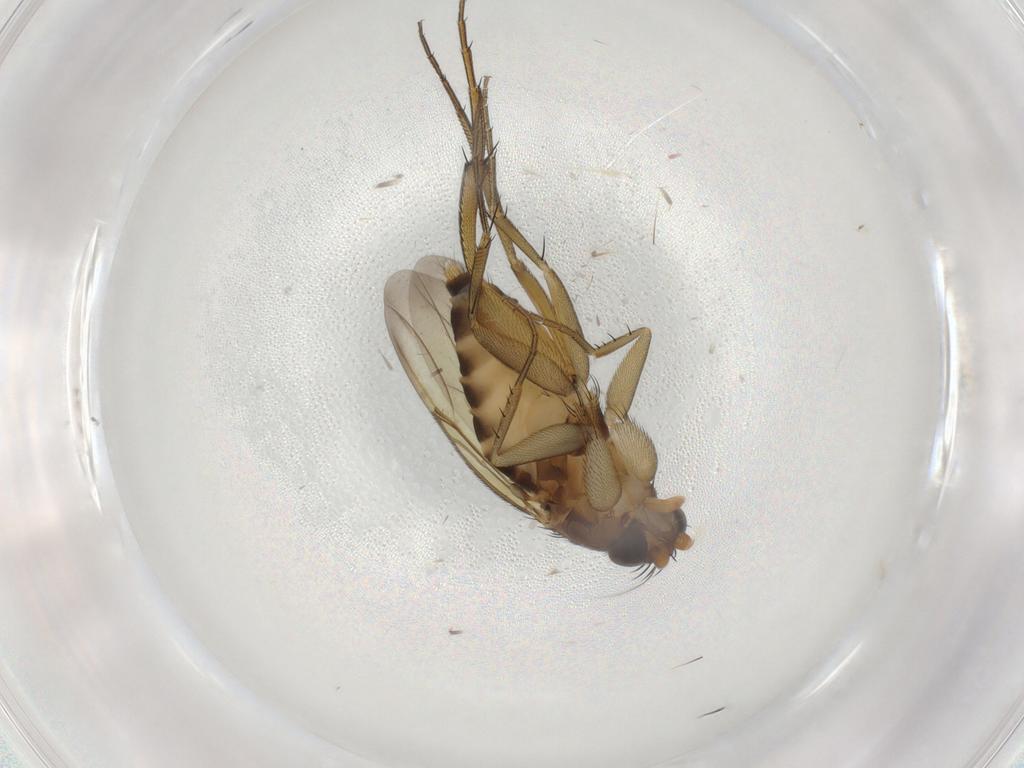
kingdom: Animalia
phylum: Arthropoda
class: Insecta
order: Diptera
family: Phoridae
